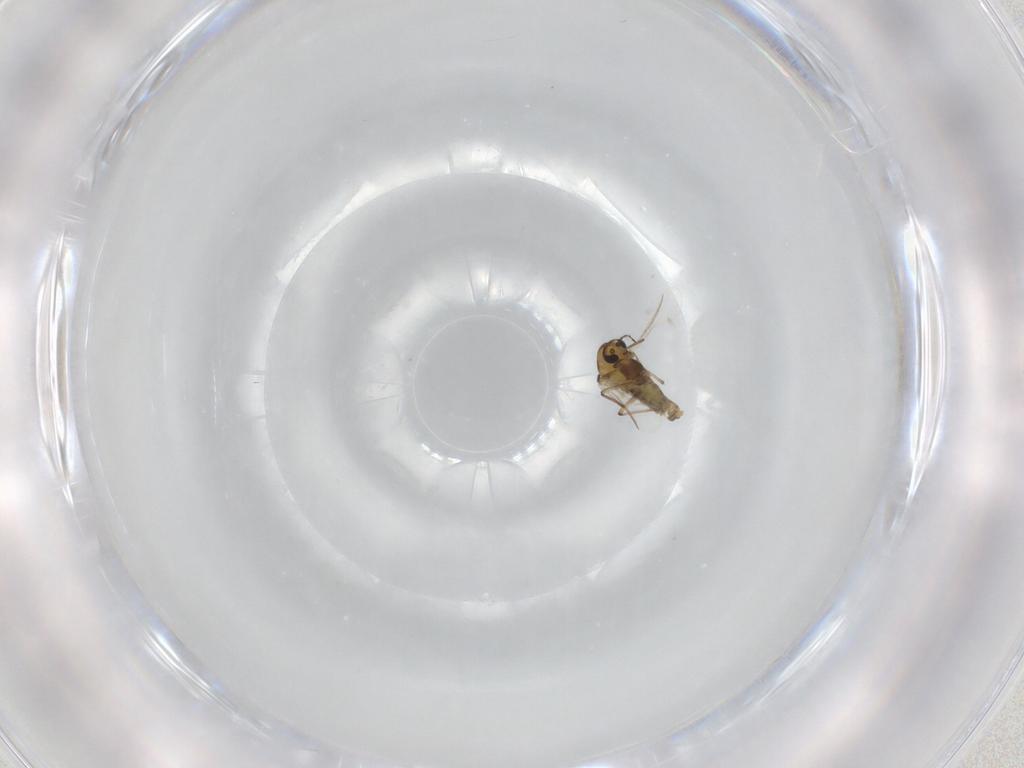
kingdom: Animalia
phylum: Arthropoda
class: Insecta
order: Diptera
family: Chironomidae
